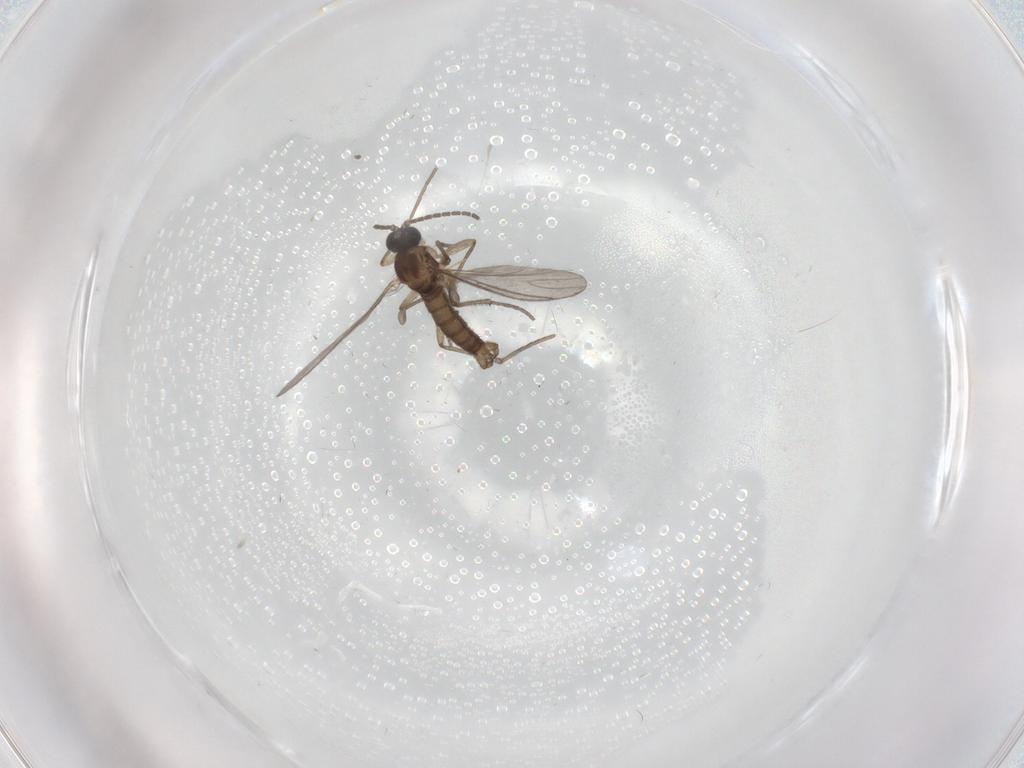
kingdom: Animalia
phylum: Arthropoda
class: Insecta
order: Diptera
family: Sciaridae
